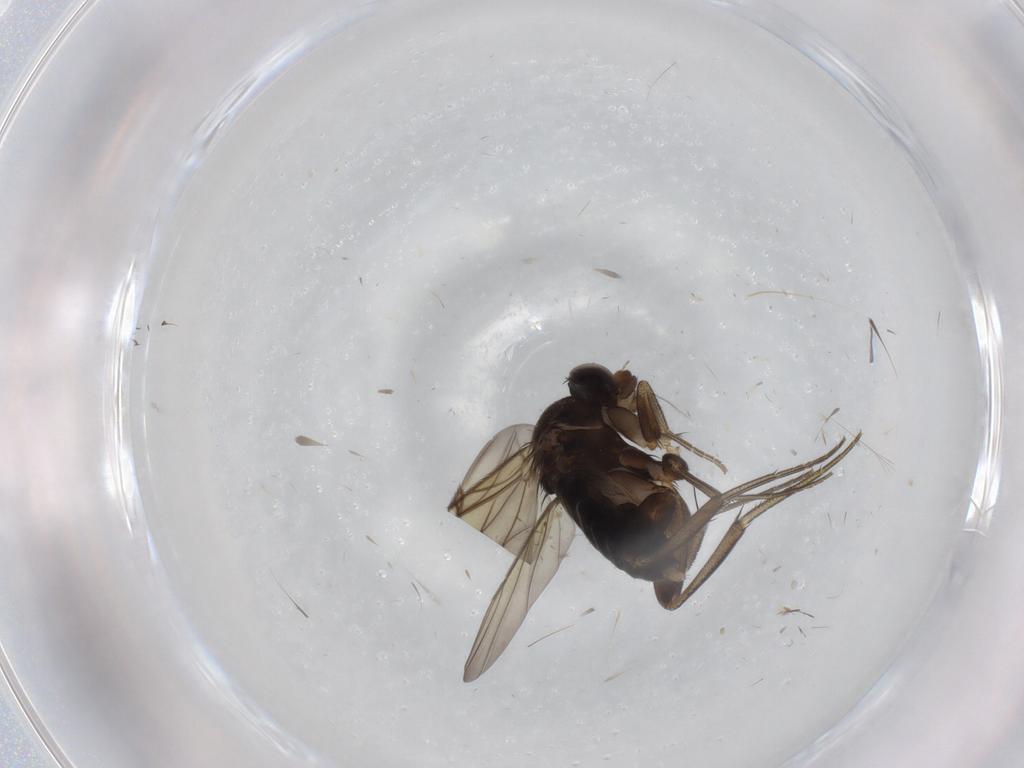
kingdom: Animalia
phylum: Arthropoda
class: Insecta
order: Diptera
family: Phoridae
